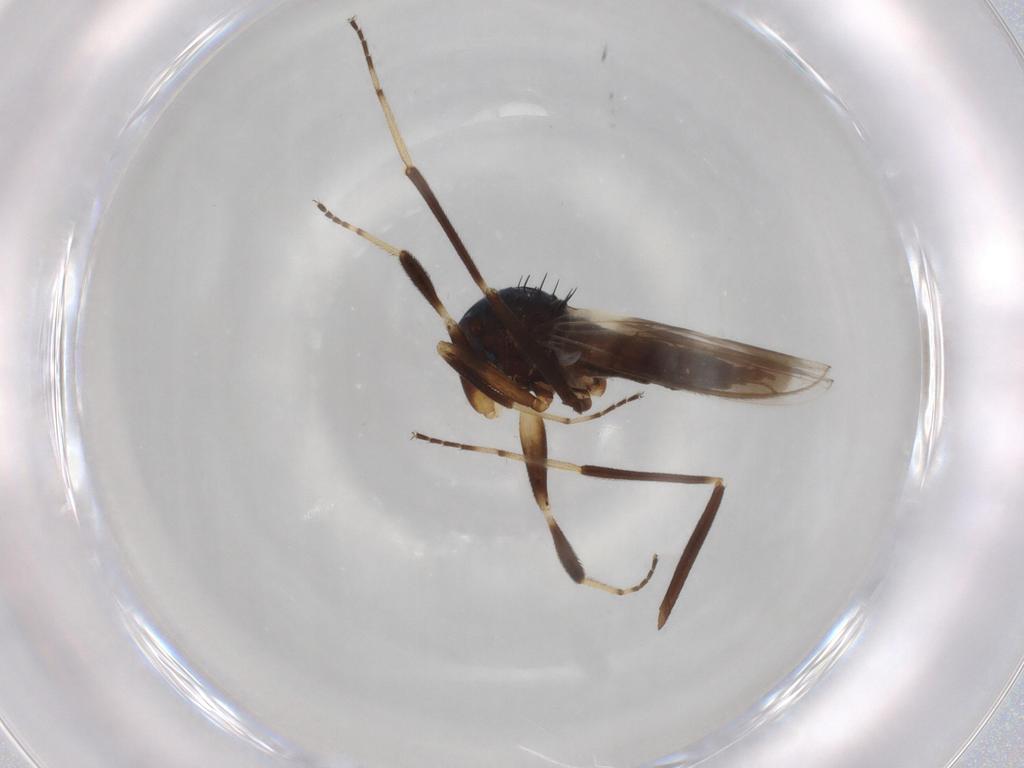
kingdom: Animalia
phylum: Arthropoda
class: Insecta
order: Diptera
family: Hybotidae
